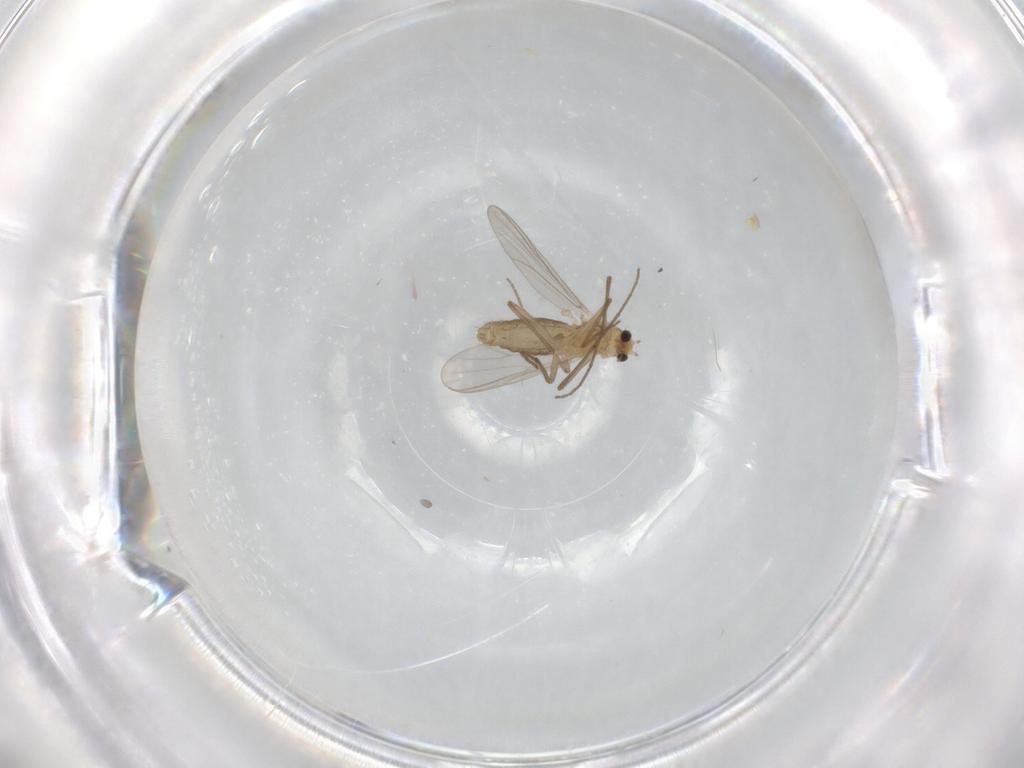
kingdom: Animalia
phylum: Arthropoda
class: Insecta
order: Diptera
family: Chironomidae
